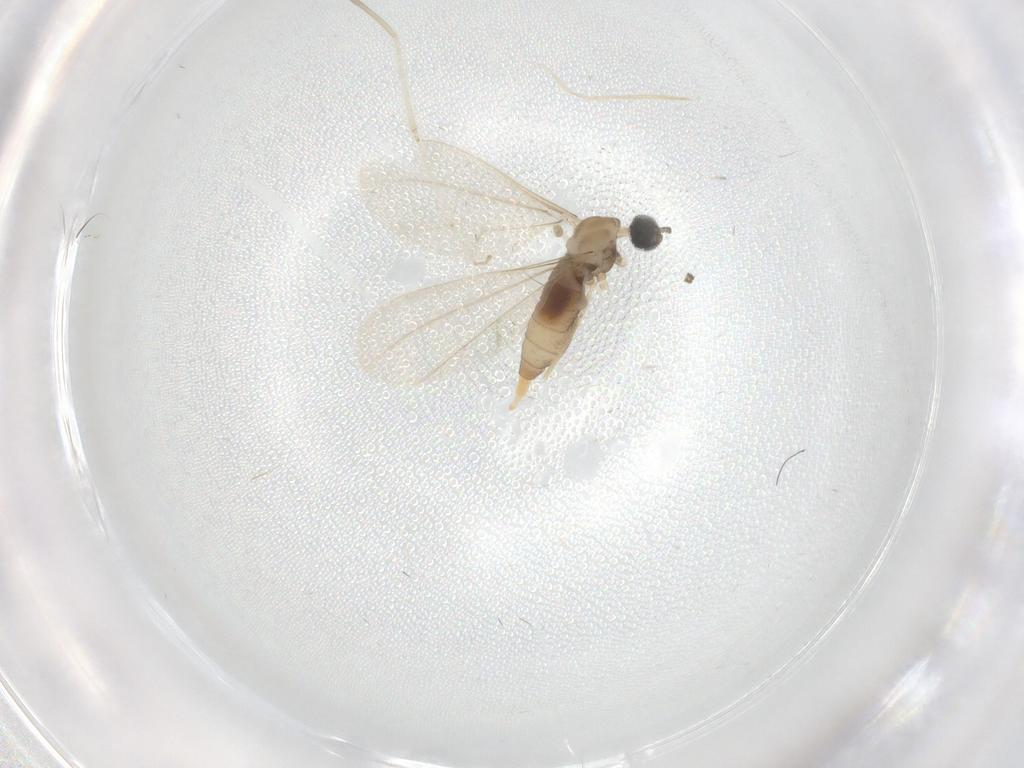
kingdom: Animalia
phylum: Arthropoda
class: Insecta
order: Diptera
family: Cecidomyiidae
